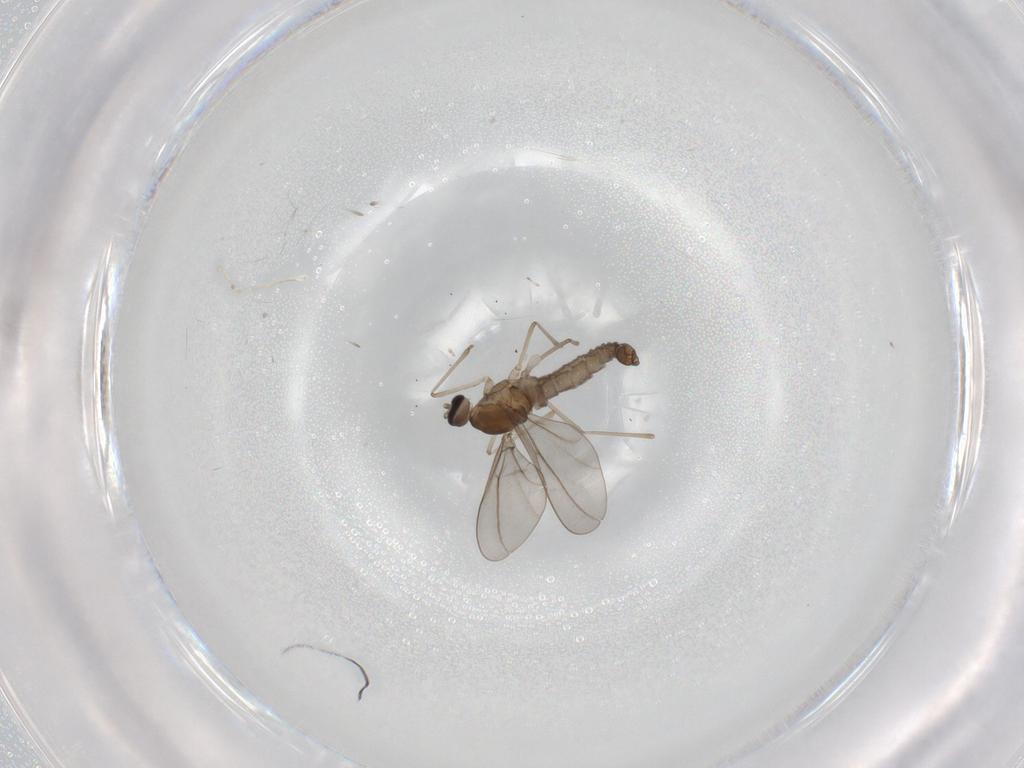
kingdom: Animalia
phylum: Arthropoda
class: Insecta
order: Diptera
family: Cecidomyiidae
